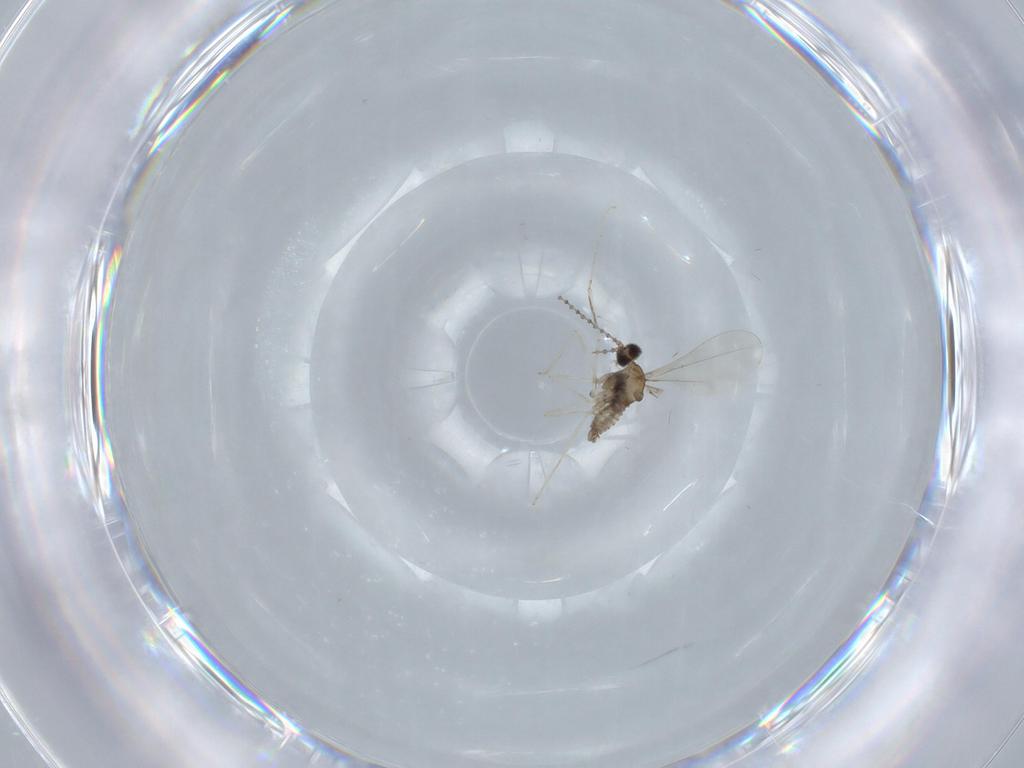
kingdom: Animalia
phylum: Arthropoda
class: Insecta
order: Diptera
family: Cecidomyiidae
